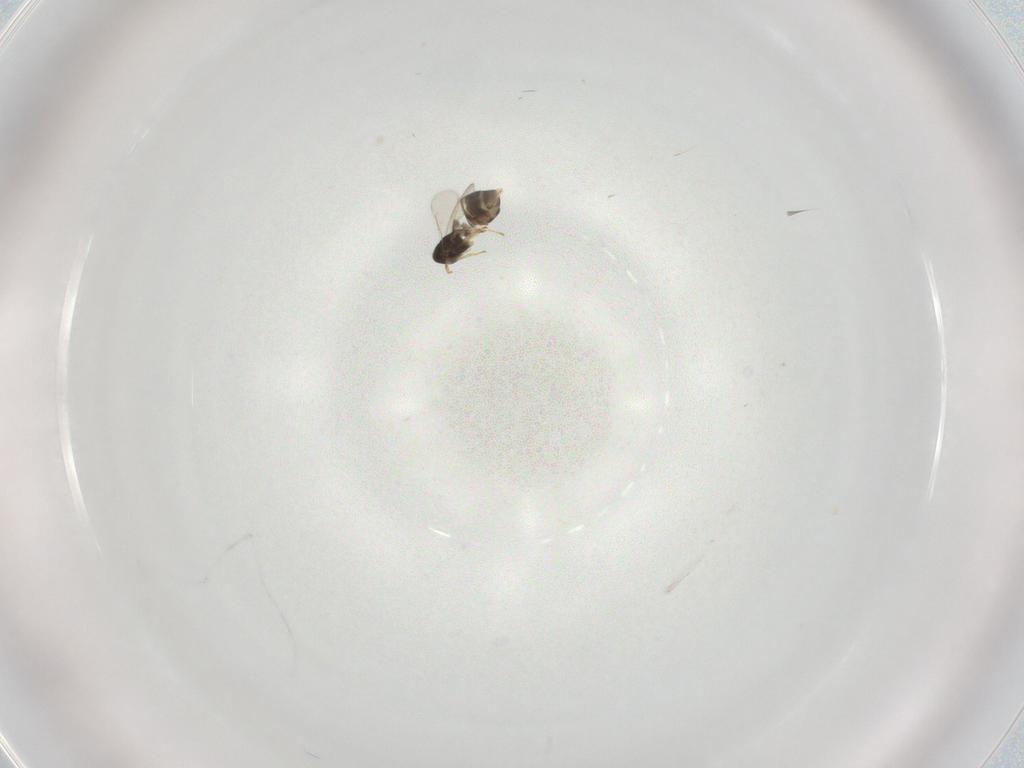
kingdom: Animalia
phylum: Arthropoda
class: Insecta
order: Hymenoptera
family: Aphelinidae
